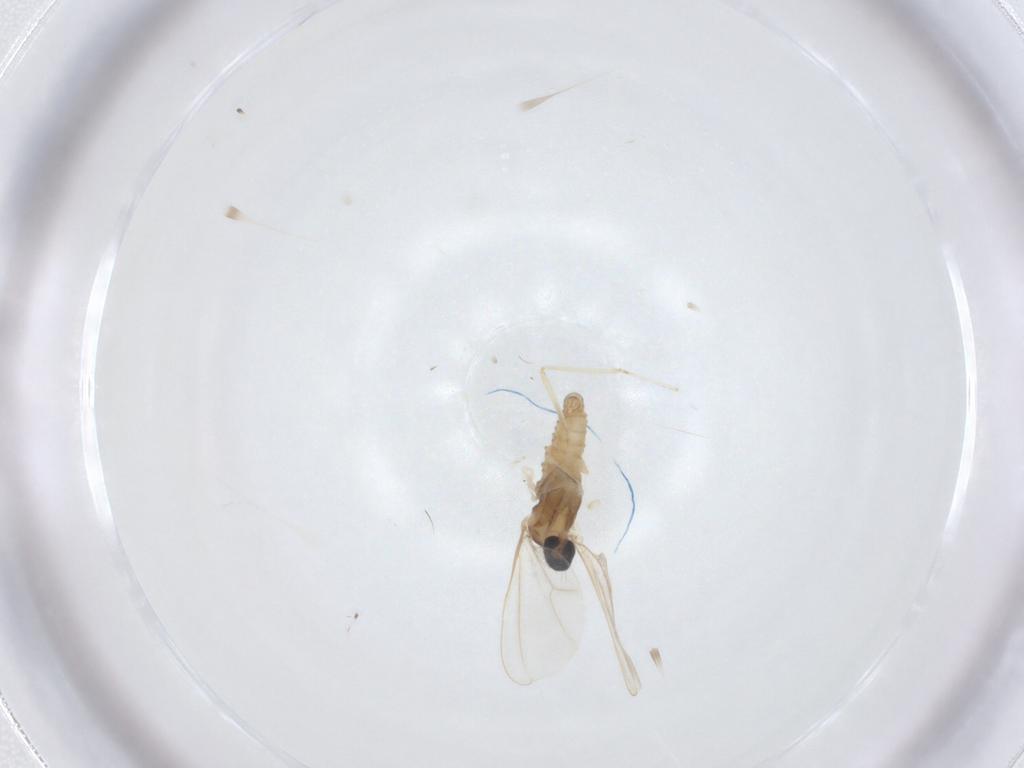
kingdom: Animalia
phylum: Arthropoda
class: Insecta
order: Diptera
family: Cecidomyiidae
